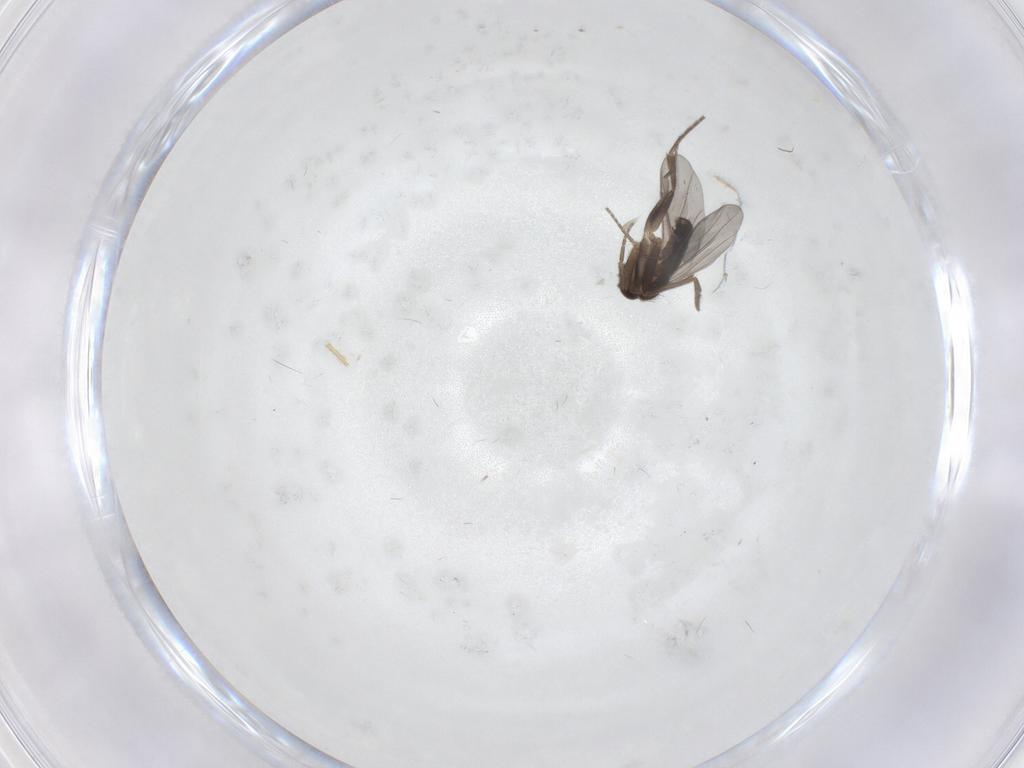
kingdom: Animalia
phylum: Arthropoda
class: Insecta
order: Diptera
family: Phoridae
